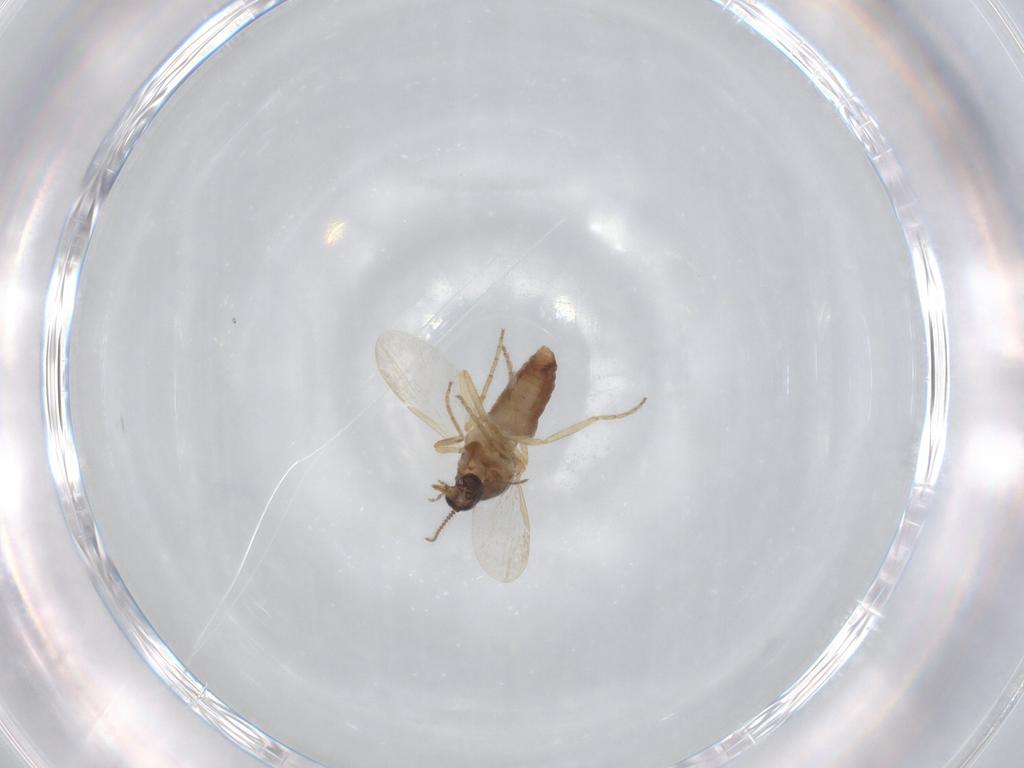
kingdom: Animalia
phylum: Arthropoda
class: Insecta
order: Diptera
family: Ceratopogonidae
